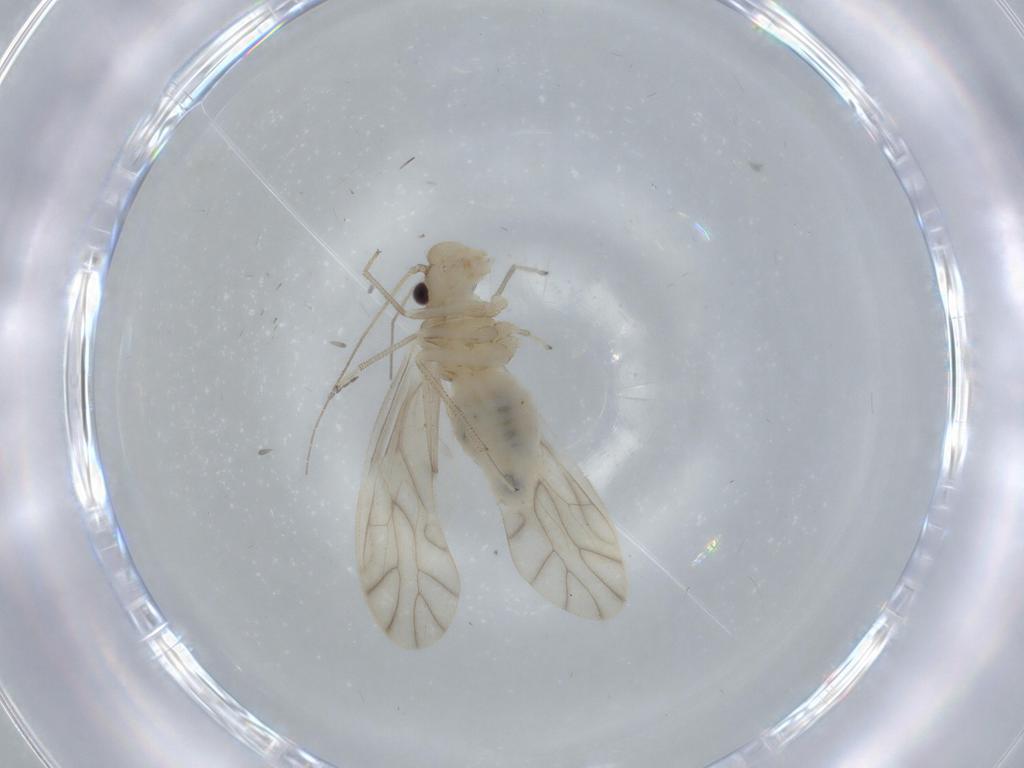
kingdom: Animalia
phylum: Arthropoda
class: Insecta
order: Psocodea
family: Caeciliusidae
